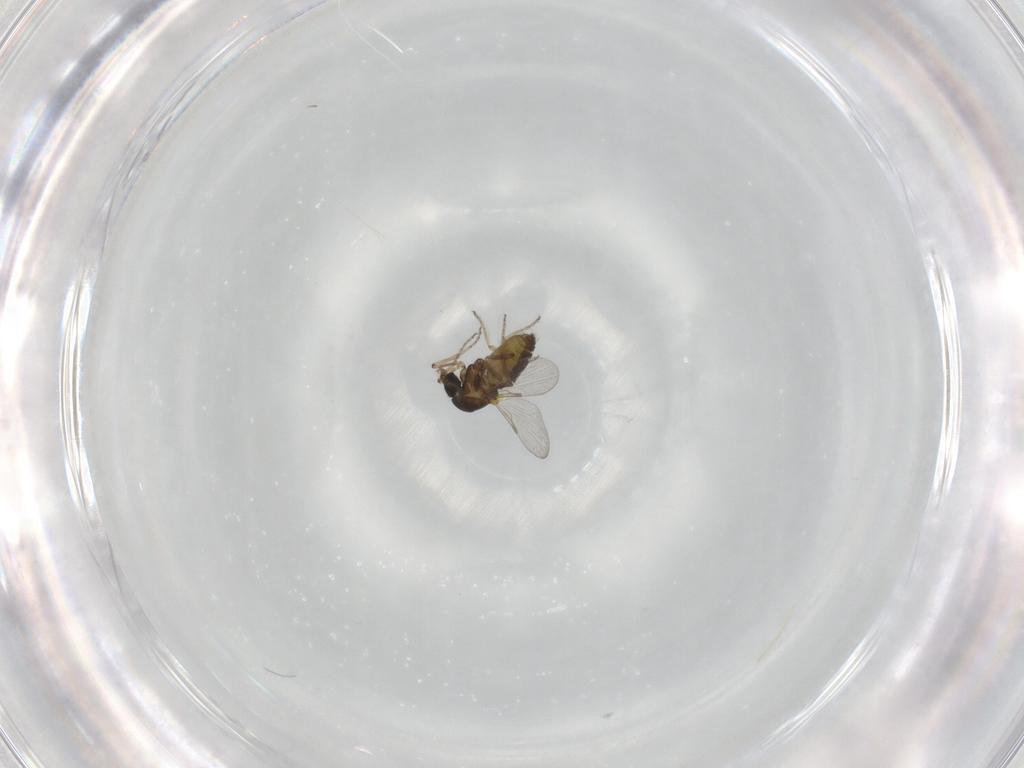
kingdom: Animalia
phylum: Arthropoda
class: Insecta
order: Diptera
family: Ceratopogonidae
